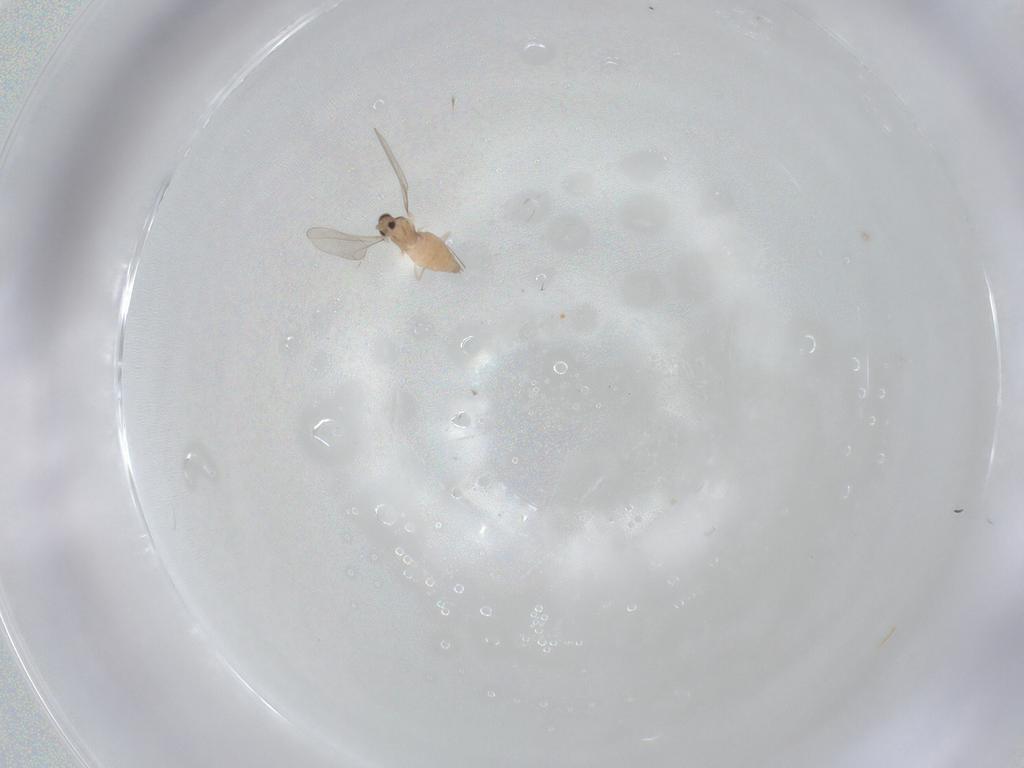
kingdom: Animalia
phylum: Arthropoda
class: Insecta
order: Diptera
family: Cecidomyiidae
